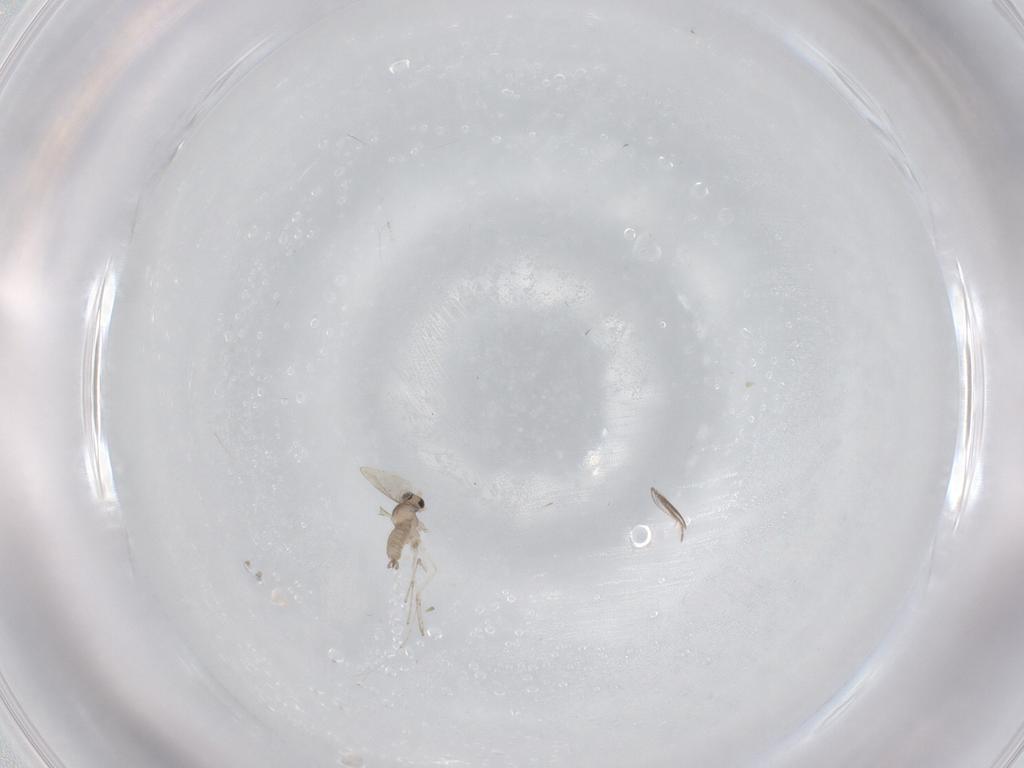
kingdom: Animalia
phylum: Arthropoda
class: Insecta
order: Diptera
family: Cecidomyiidae
